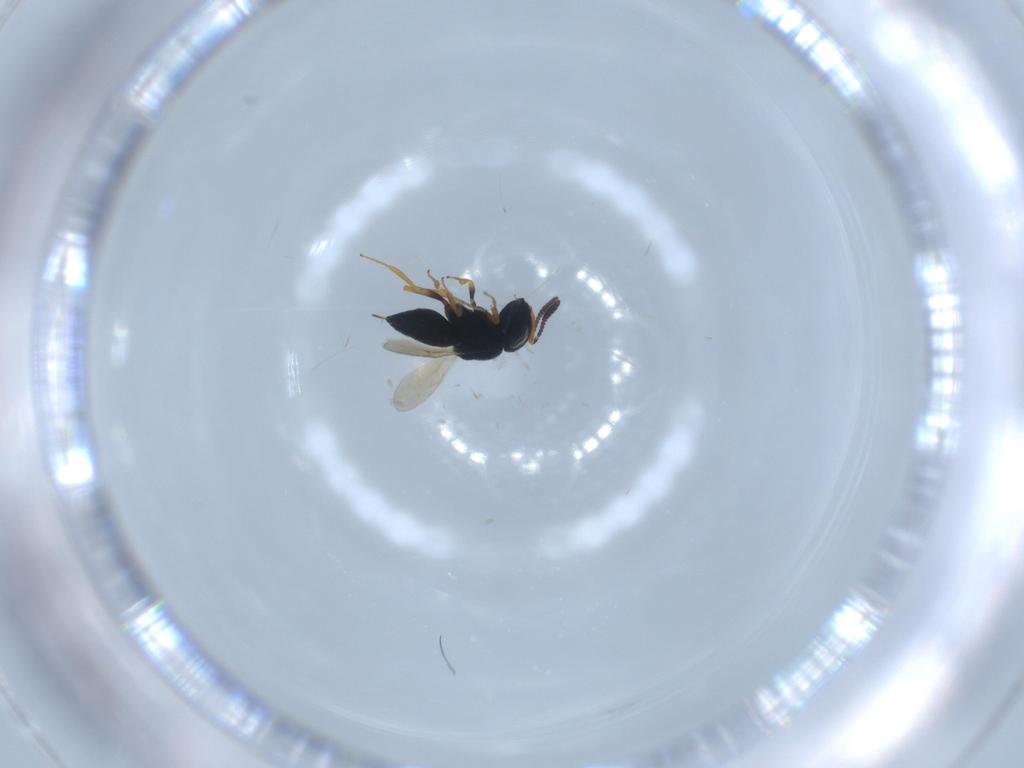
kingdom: Animalia
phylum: Arthropoda
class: Insecta
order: Hymenoptera
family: Scelionidae
